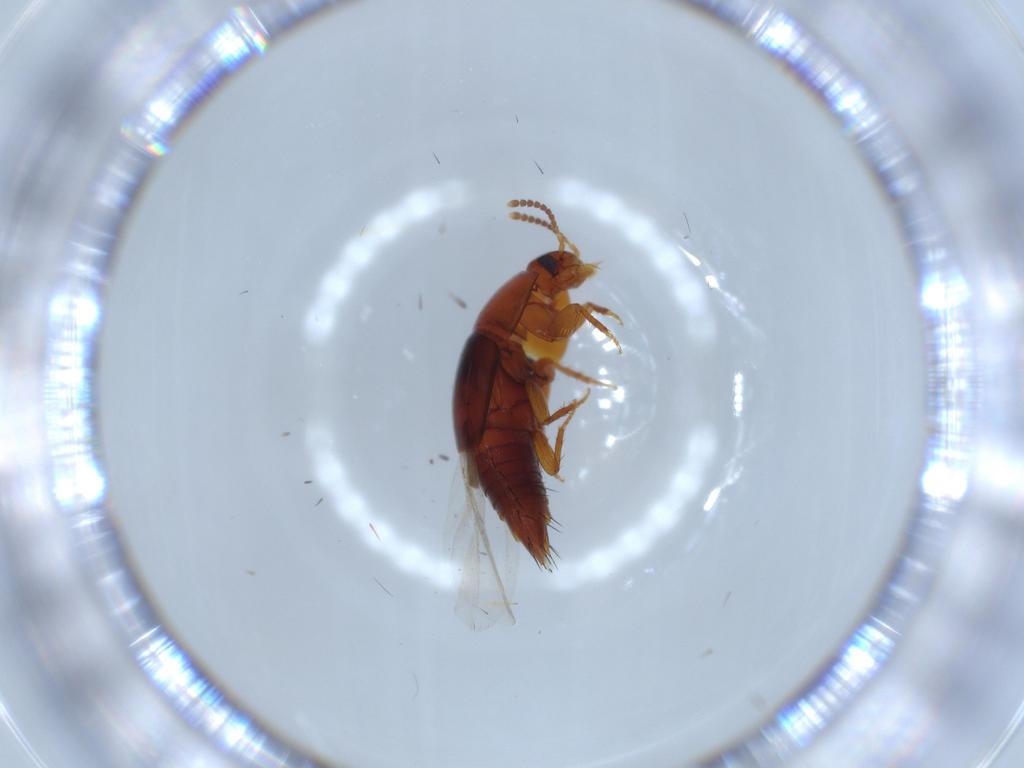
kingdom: Animalia
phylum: Arthropoda
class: Insecta
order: Coleoptera
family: Staphylinidae
